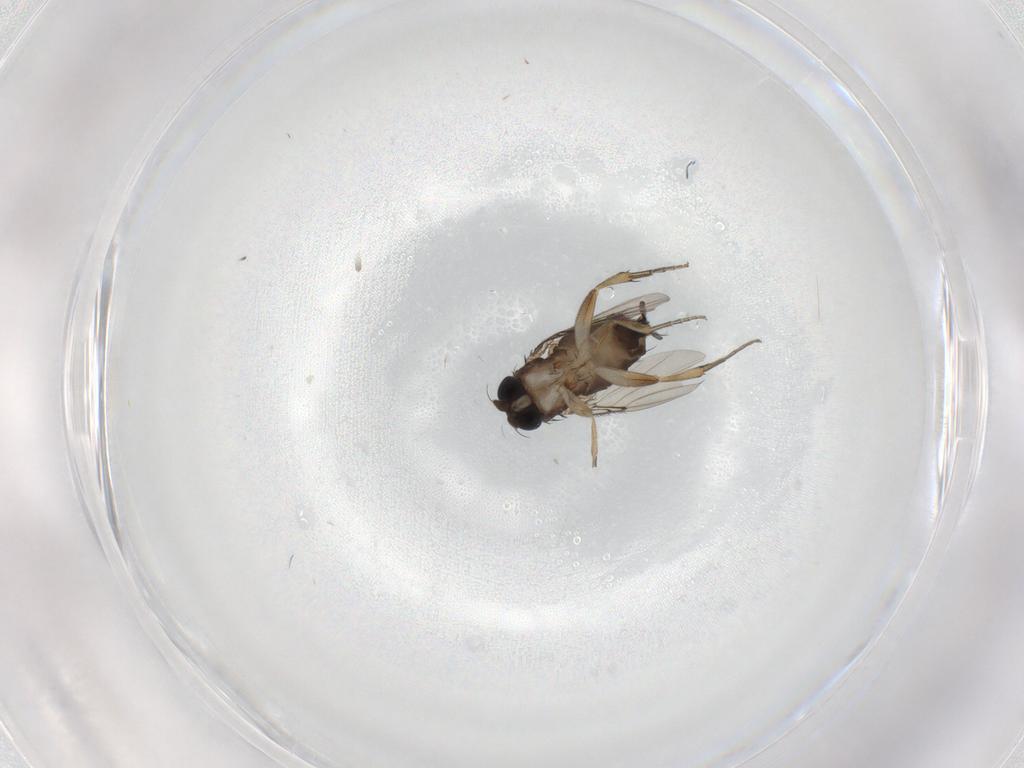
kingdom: Animalia
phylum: Arthropoda
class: Insecta
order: Diptera
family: Phoridae
